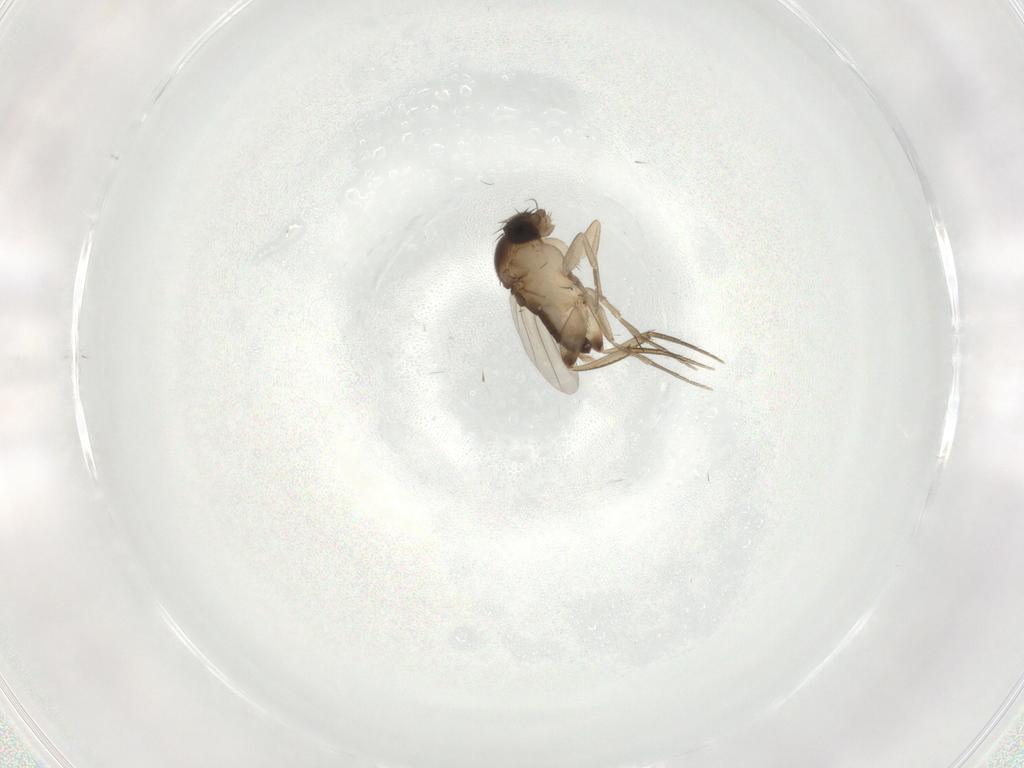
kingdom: Animalia
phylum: Arthropoda
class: Insecta
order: Diptera
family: Phoridae
